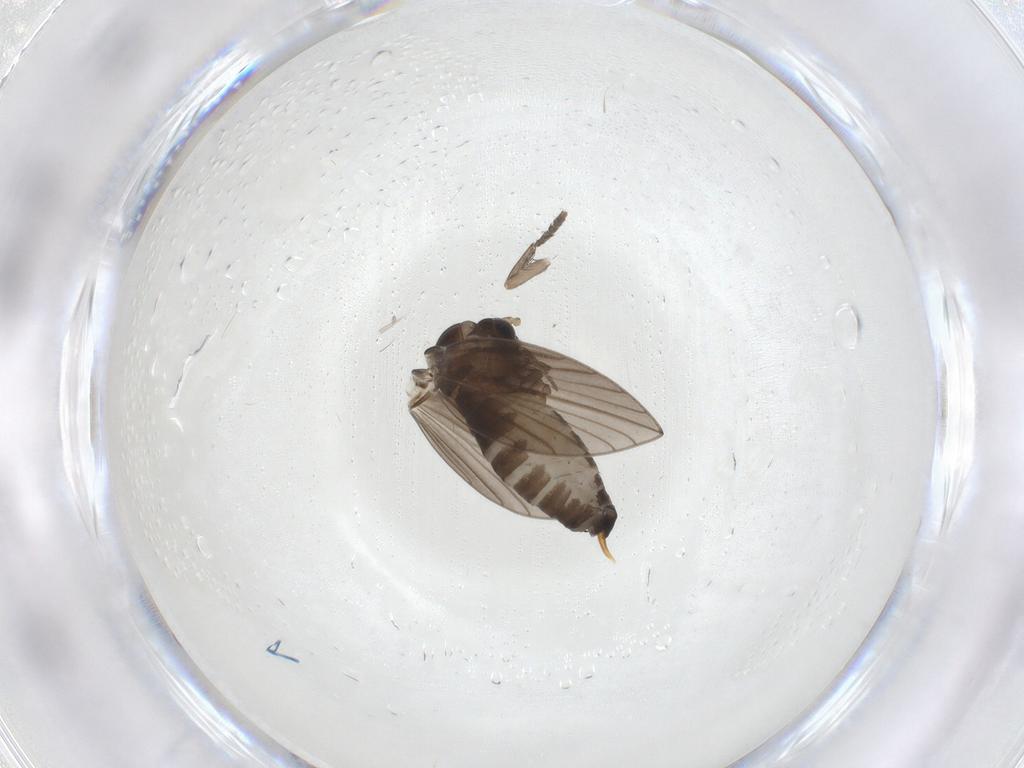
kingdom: Animalia
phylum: Arthropoda
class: Insecta
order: Diptera
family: Psychodidae
